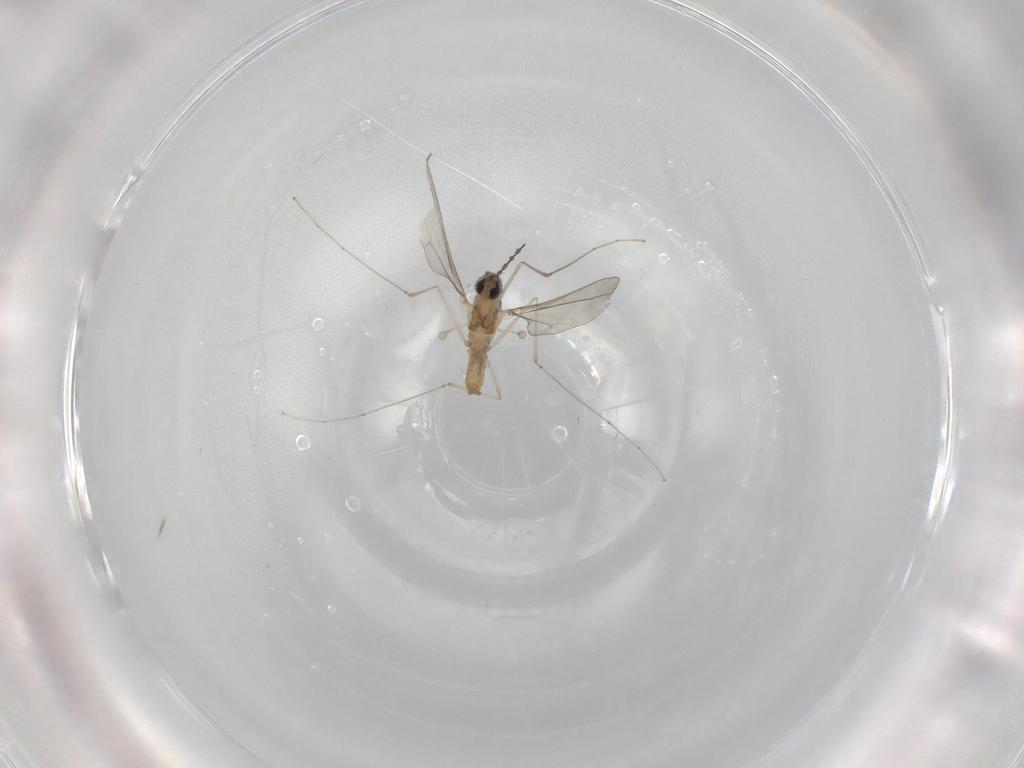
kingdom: Animalia
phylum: Arthropoda
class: Insecta
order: Diptera
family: Cecidomyiidae
